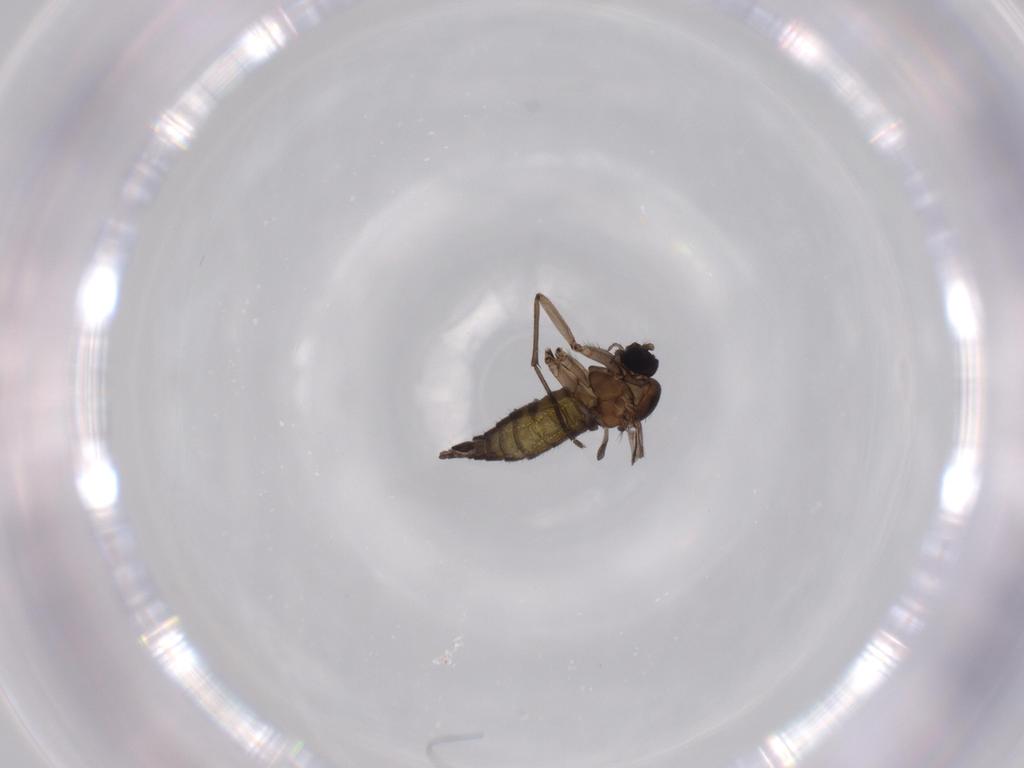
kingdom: Animalia
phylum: Arthropoda
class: Insecta
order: Diptera
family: Sciaridae
